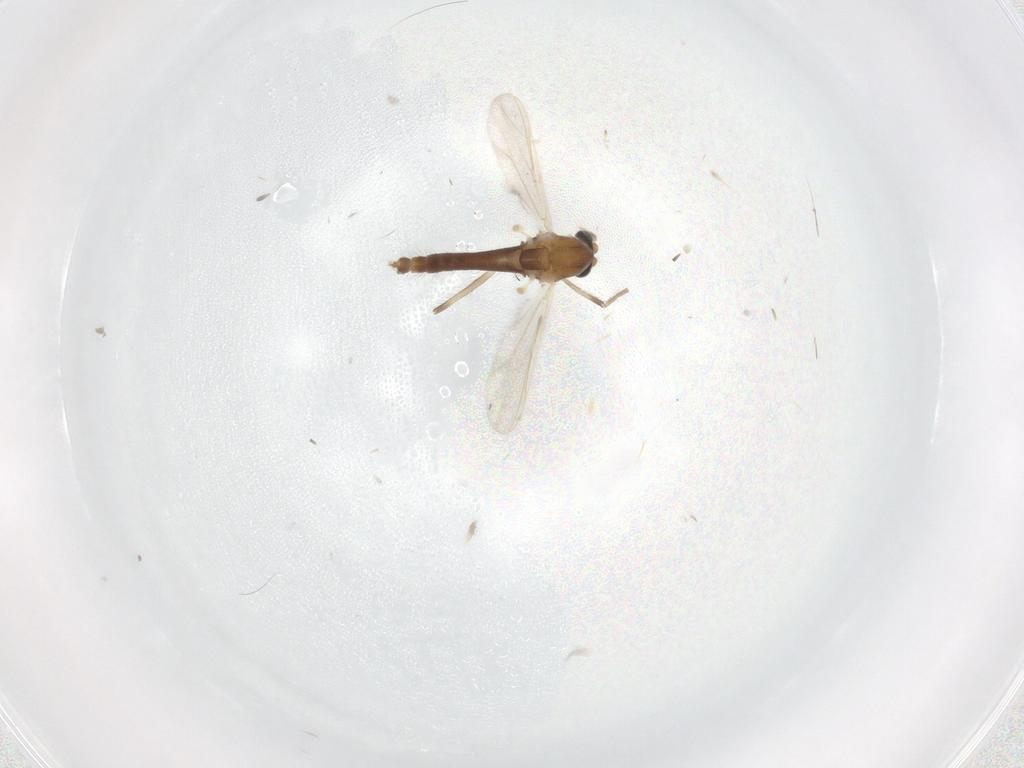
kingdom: Animalia
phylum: Arthropoda
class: Insecta
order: Diptera
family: Chironomidae
